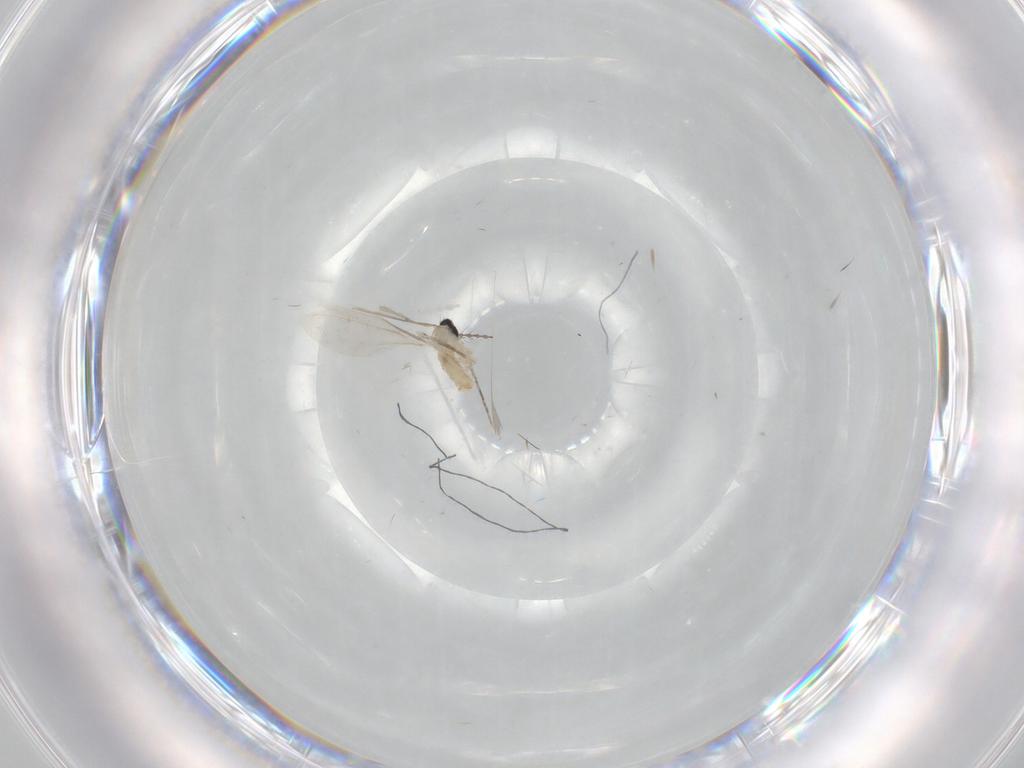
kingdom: Animalia
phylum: Arthropoda
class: Insecta
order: Diptera
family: Cecidomyiidae
